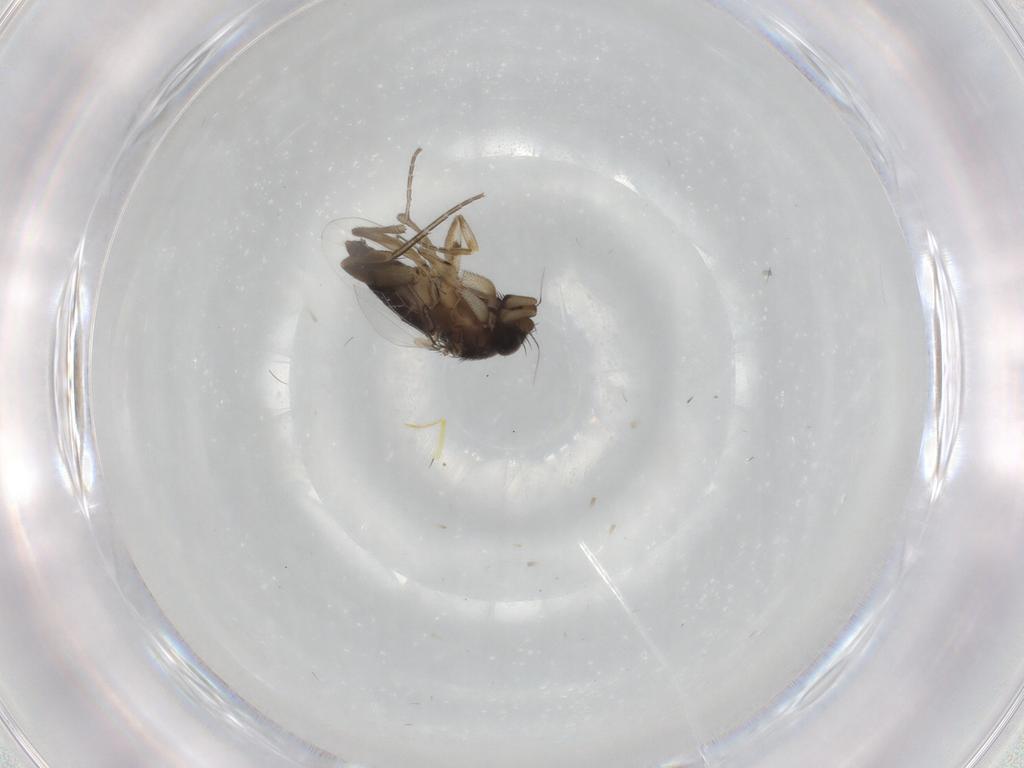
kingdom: Animalia
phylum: Arthropoda
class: Insecta
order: Diptera
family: Phoridae
